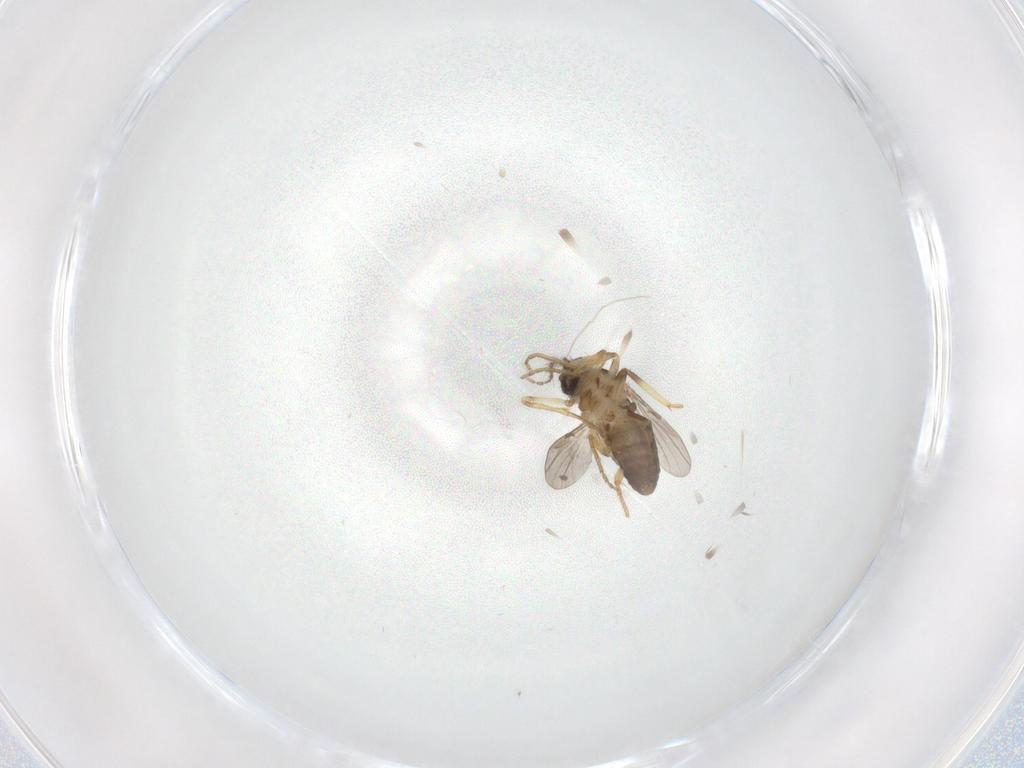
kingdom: Animalia
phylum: Arthropoda
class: Insecta
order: Diptera
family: Ceratopogonidae
